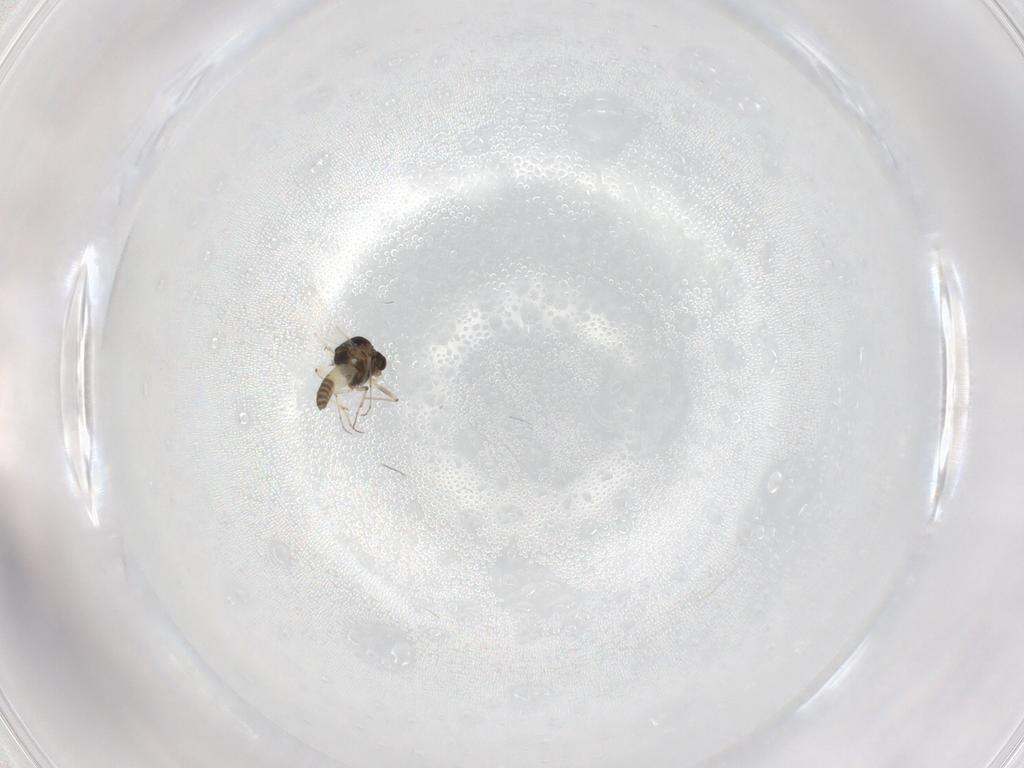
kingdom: Animalia
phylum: Arthropoda
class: Insecta
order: Diptera
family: Chironomidae
